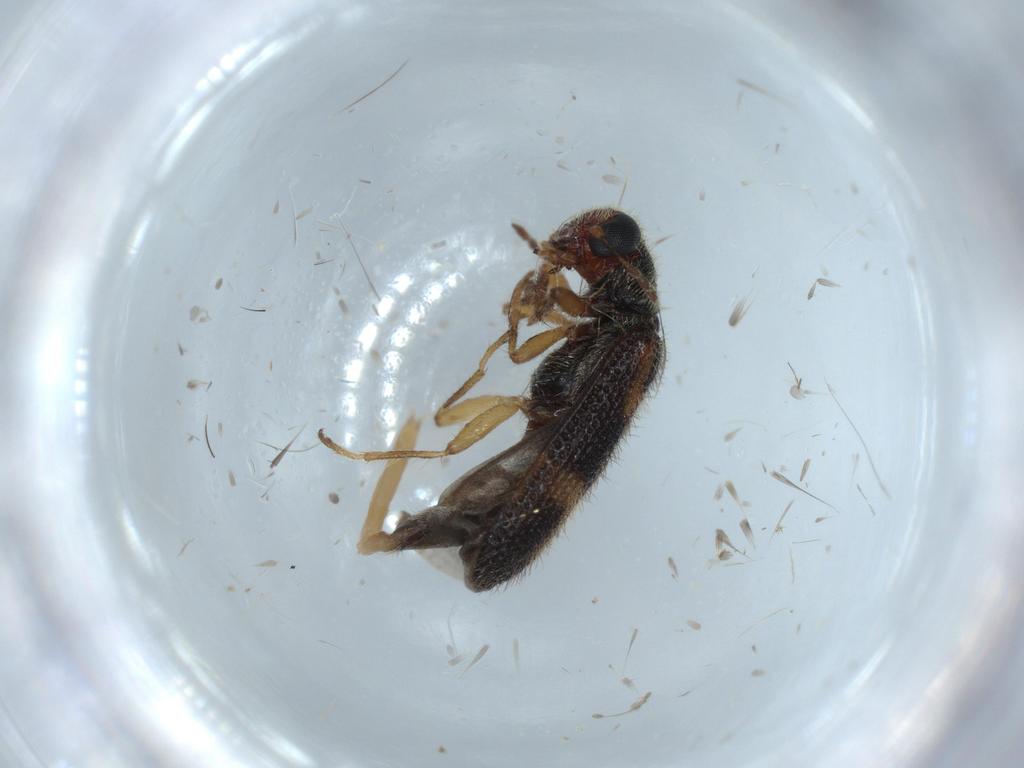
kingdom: Animalia
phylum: Arthropoda
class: Insecta
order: Coleoptera
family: Cleridae
